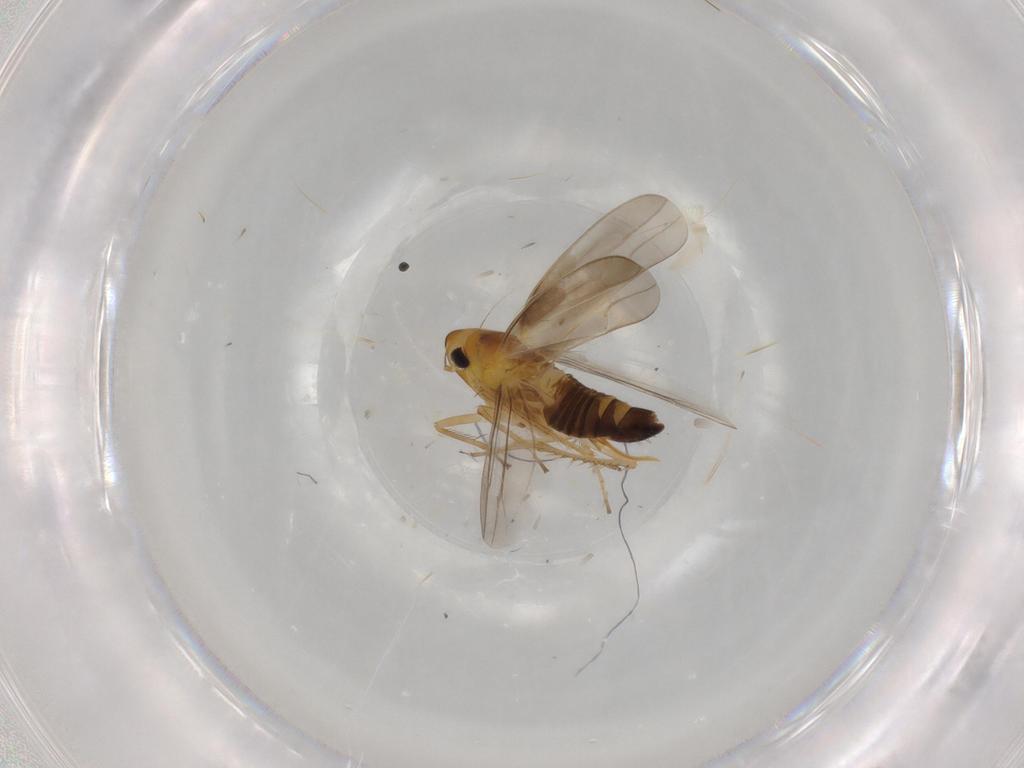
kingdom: Animalia
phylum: Arthropoda
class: Insecta
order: Hemiptera
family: Cicadellidae
